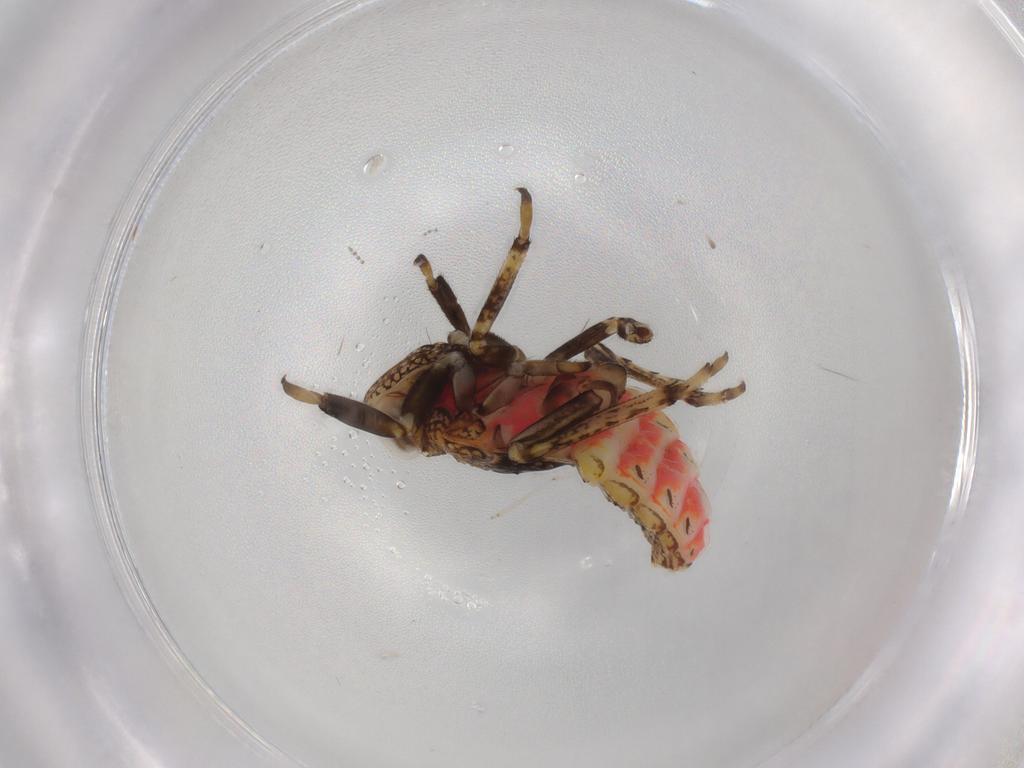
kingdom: Animalia
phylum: Arthropoda
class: Insecta
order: Hemiptera
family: Issidae
